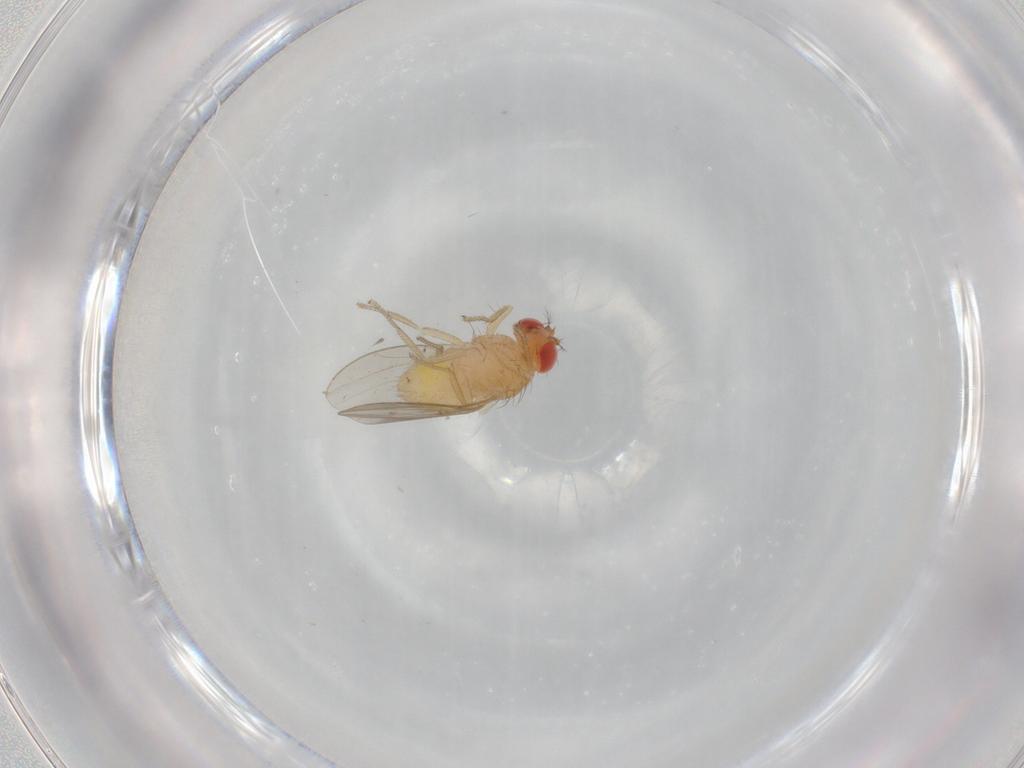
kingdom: Animalia
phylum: Arthropoda
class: Insecta
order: Diptera
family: Drosophilidae
